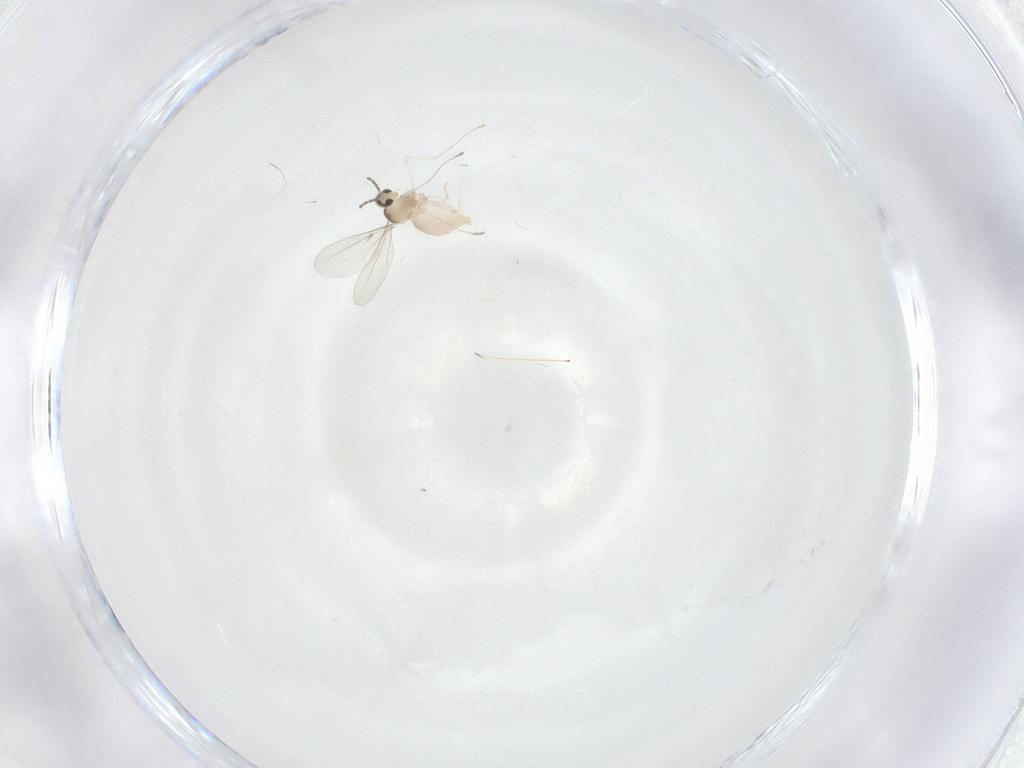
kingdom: Animalia
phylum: Arthropoda
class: Insecta
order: Diptera
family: Cecidomyiidae
